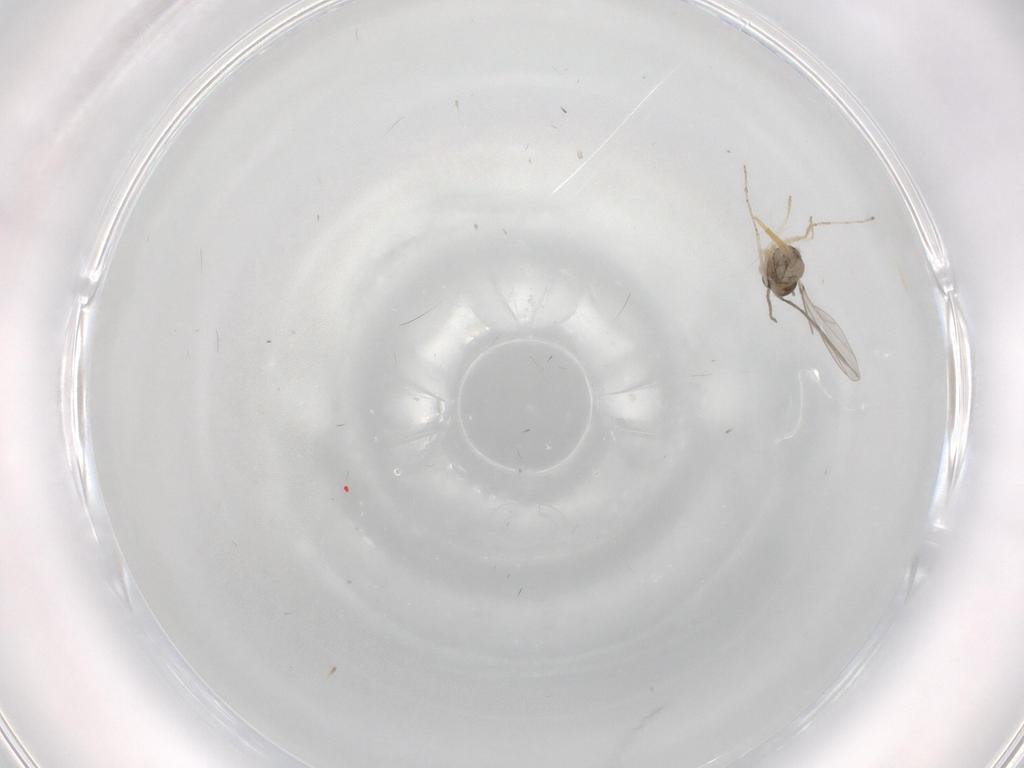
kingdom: Animalia
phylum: Arthropoda
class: Insecta
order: Diptera
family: Cecidomyiidae
